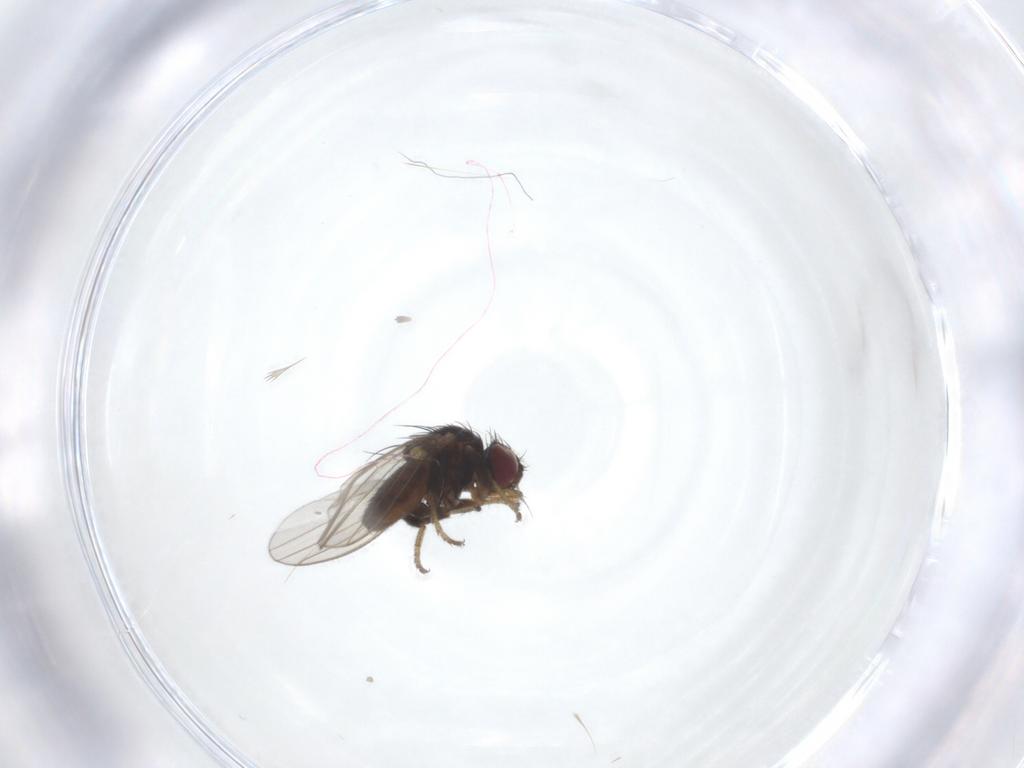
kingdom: Animalia
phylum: Arthropoda
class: Insecta
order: Diptera
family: Milichiidae
